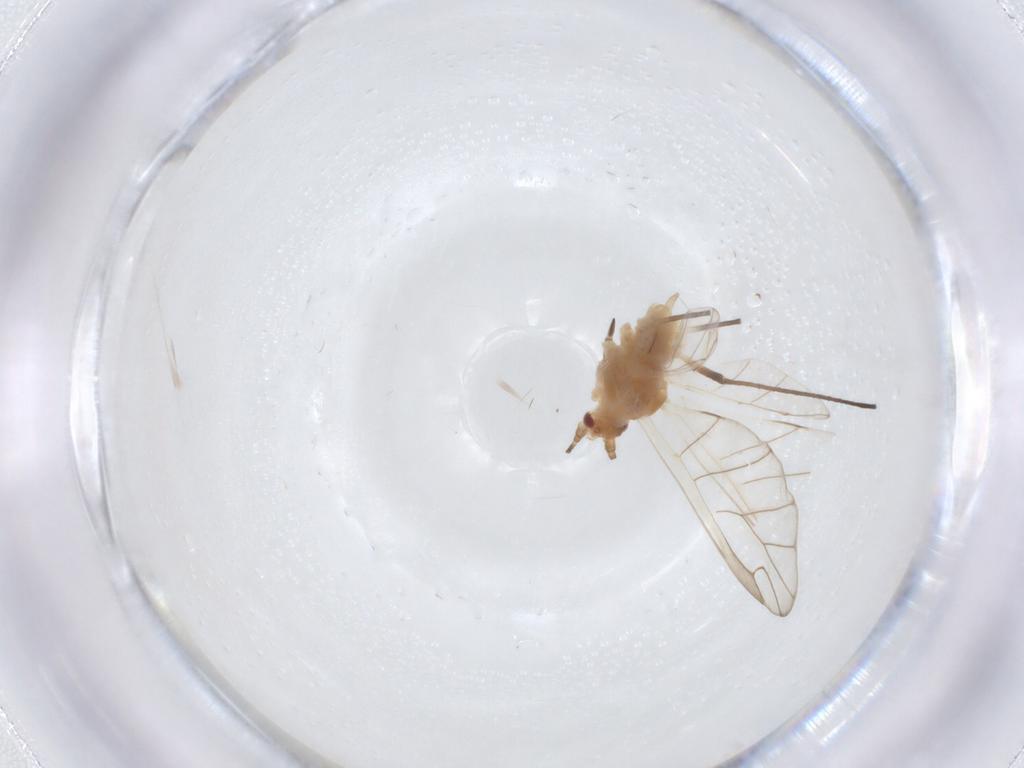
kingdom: Animalia
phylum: Arthropoda
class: Insecta
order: Hemiptera
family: Aphididae
